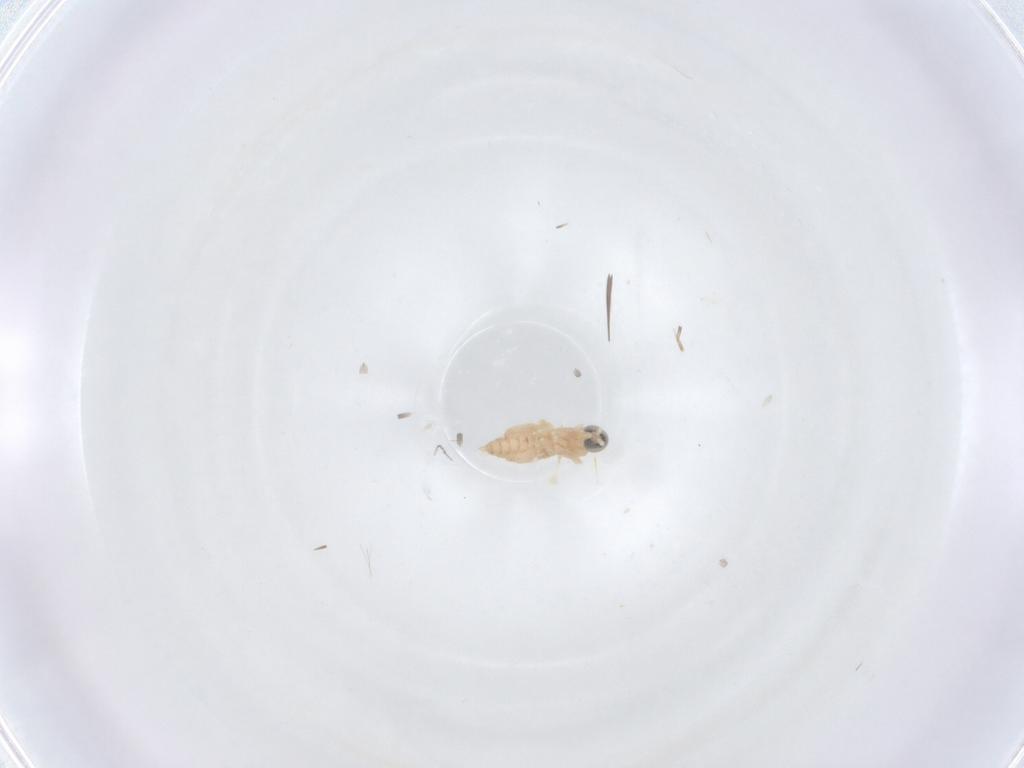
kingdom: Animalia
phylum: Arthropoda
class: Insecta
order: Diptera
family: Cecidomyiidae
